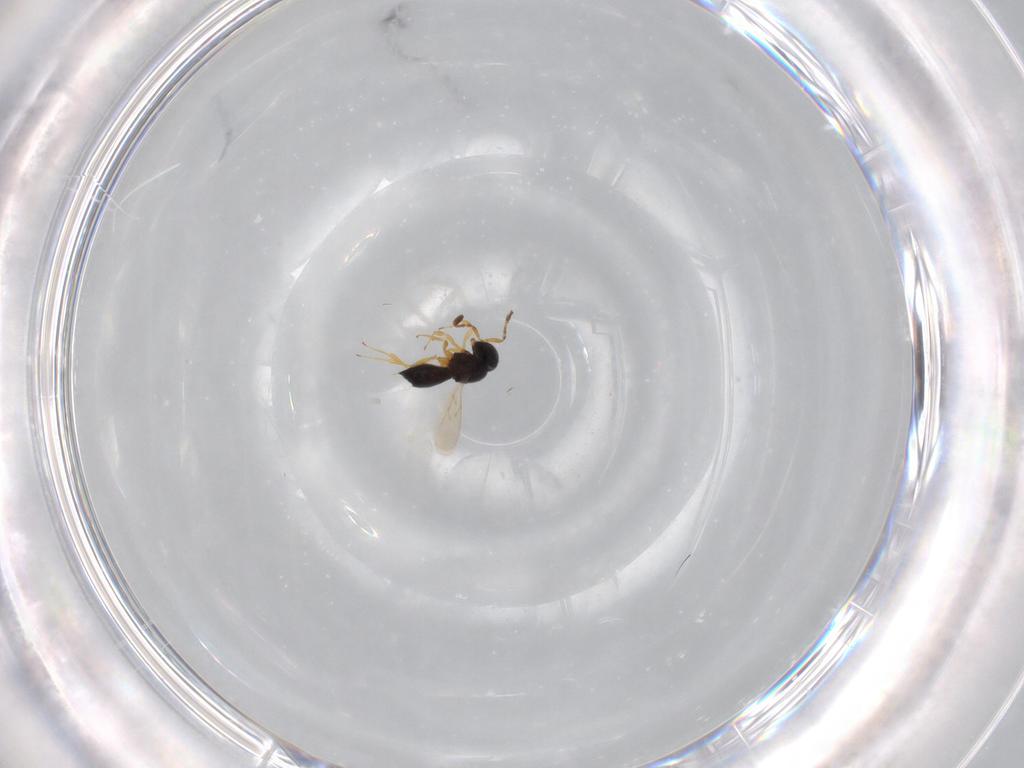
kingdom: Animalia
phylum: Arthropoda
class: Insecta
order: Hymenoptera
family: Scelionidae
